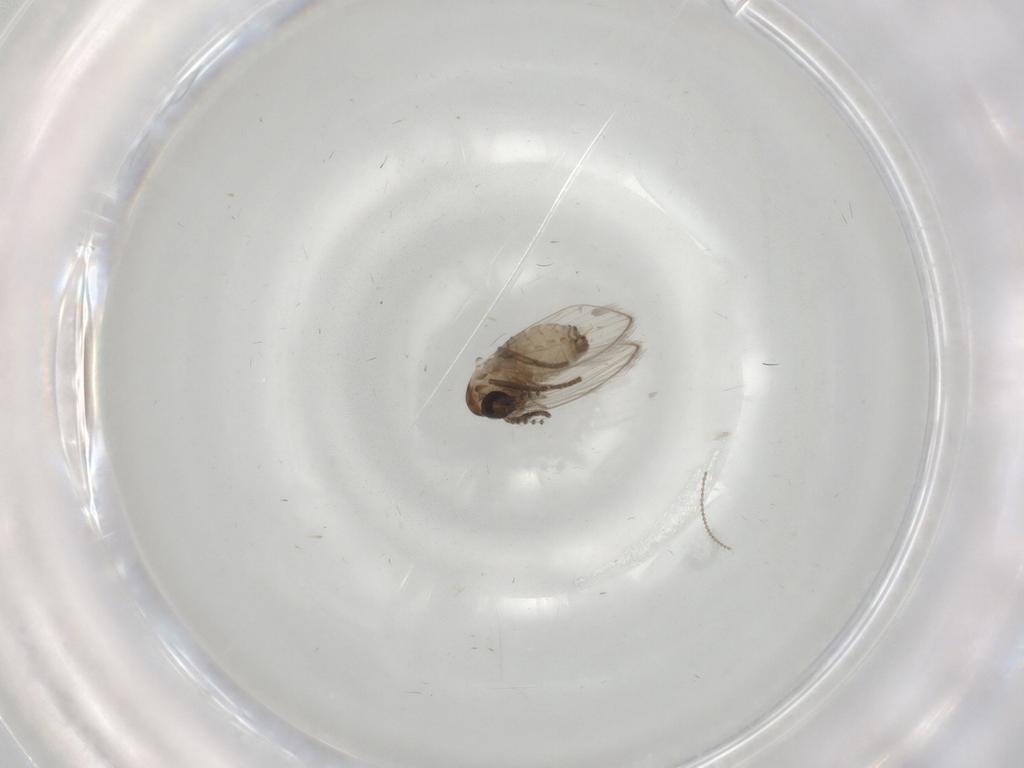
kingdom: Animalia
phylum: Arthropoda
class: Insecta
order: Diptera
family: Psychodidae
